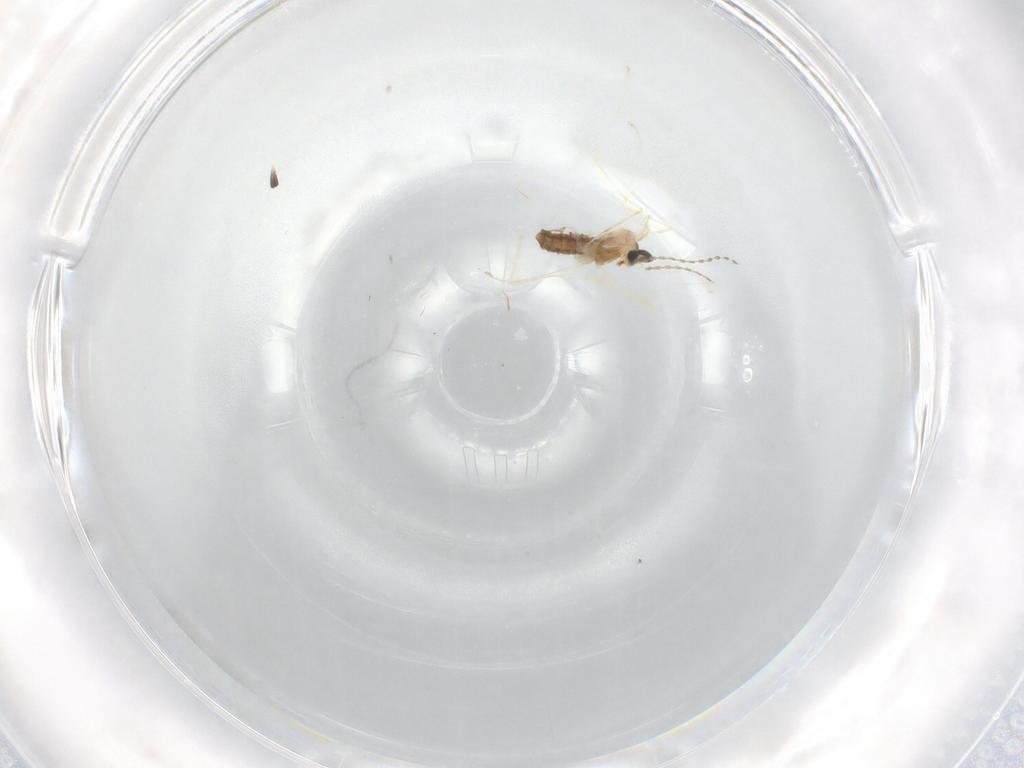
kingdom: Animalia
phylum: Arthropoda
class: Insecta
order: Diptera
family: Cecidomyiidae
